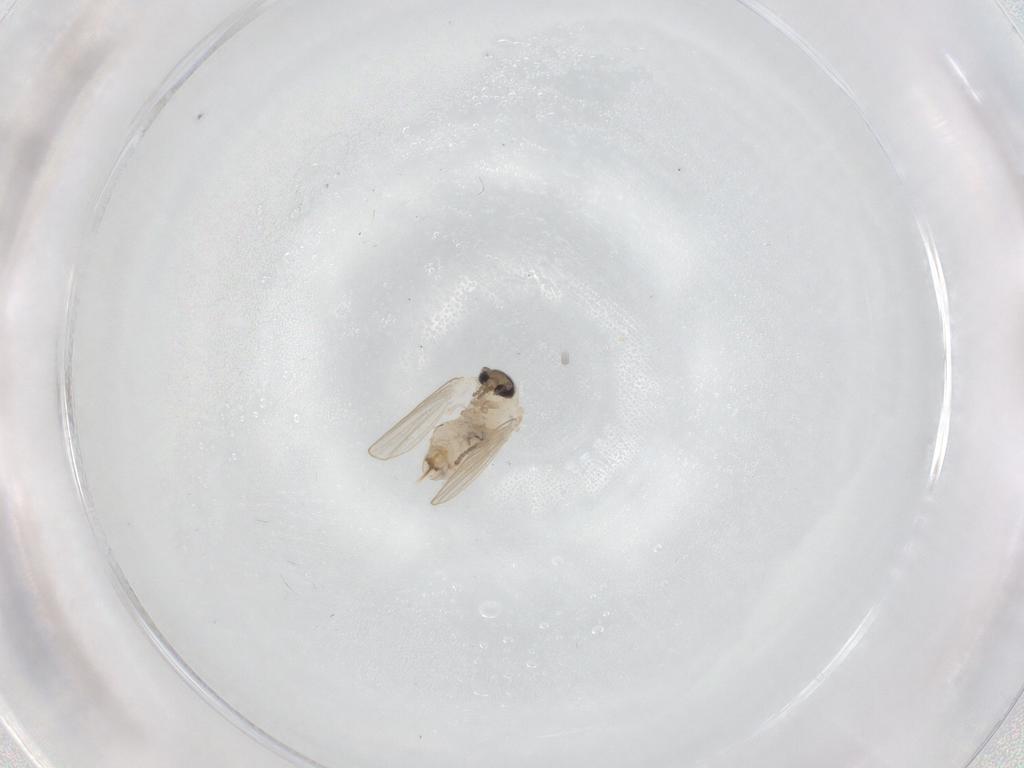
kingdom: Animalia
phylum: Arthropoda
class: Insecta
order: Diptera
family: Psychodidae
